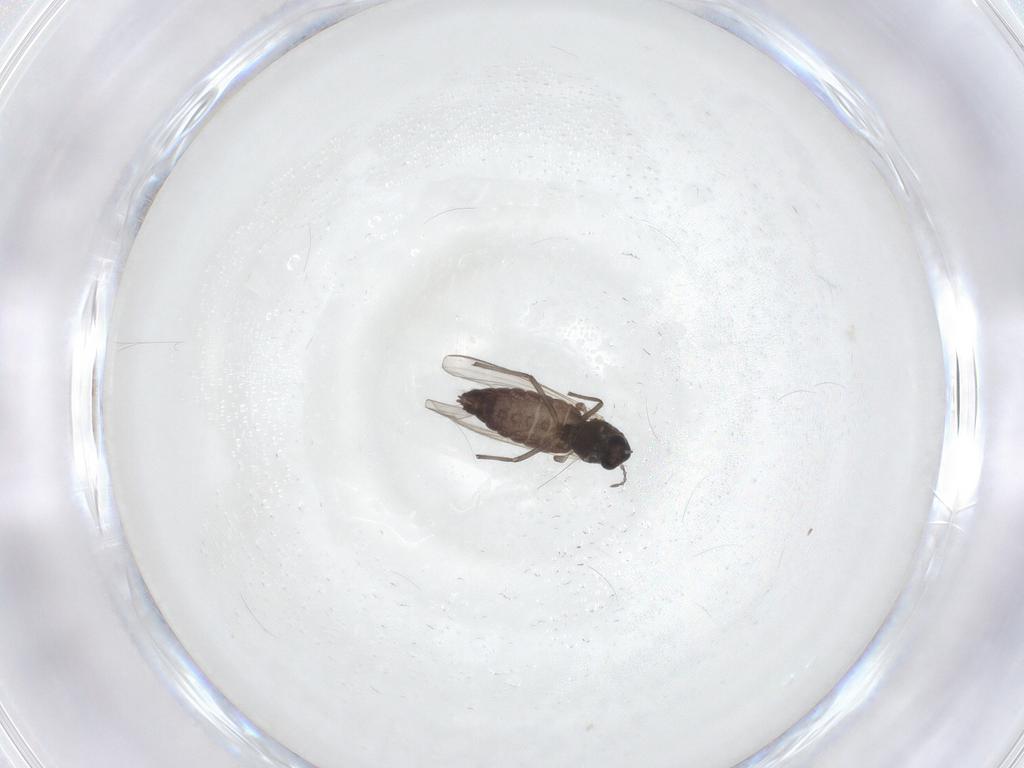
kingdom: Animalia
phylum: Arthropoda
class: Insecta
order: Diptera
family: Chironomidae
